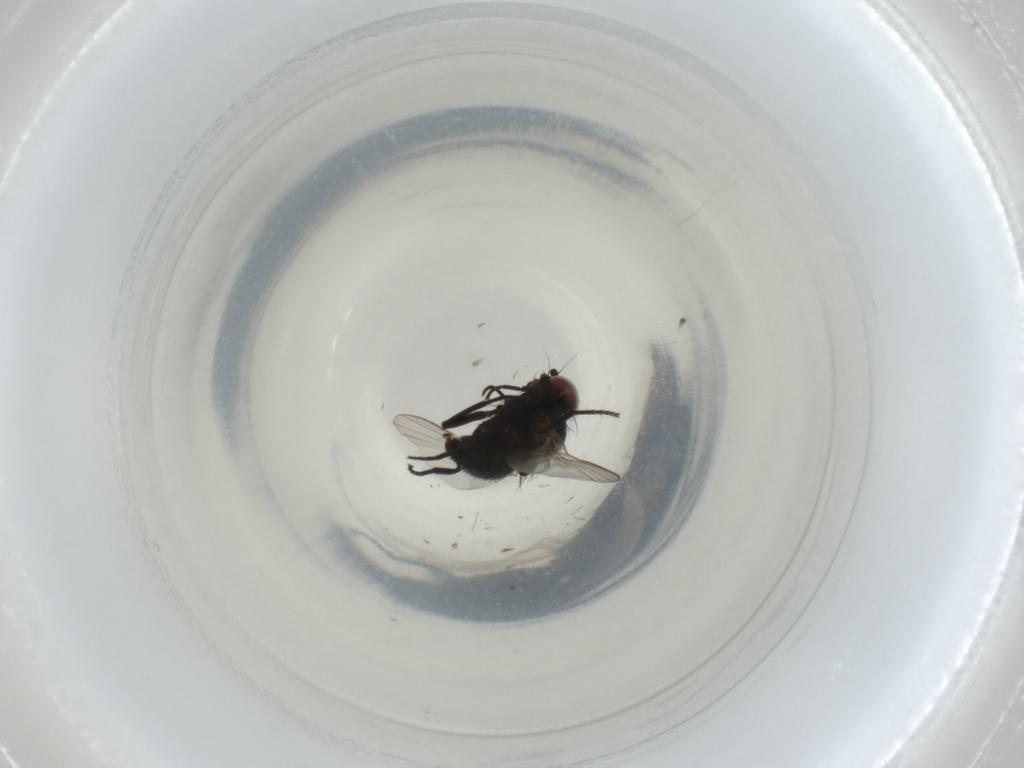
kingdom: Animalia
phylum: Arthropoda
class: Insecta
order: Diptera
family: Agromyzidae
